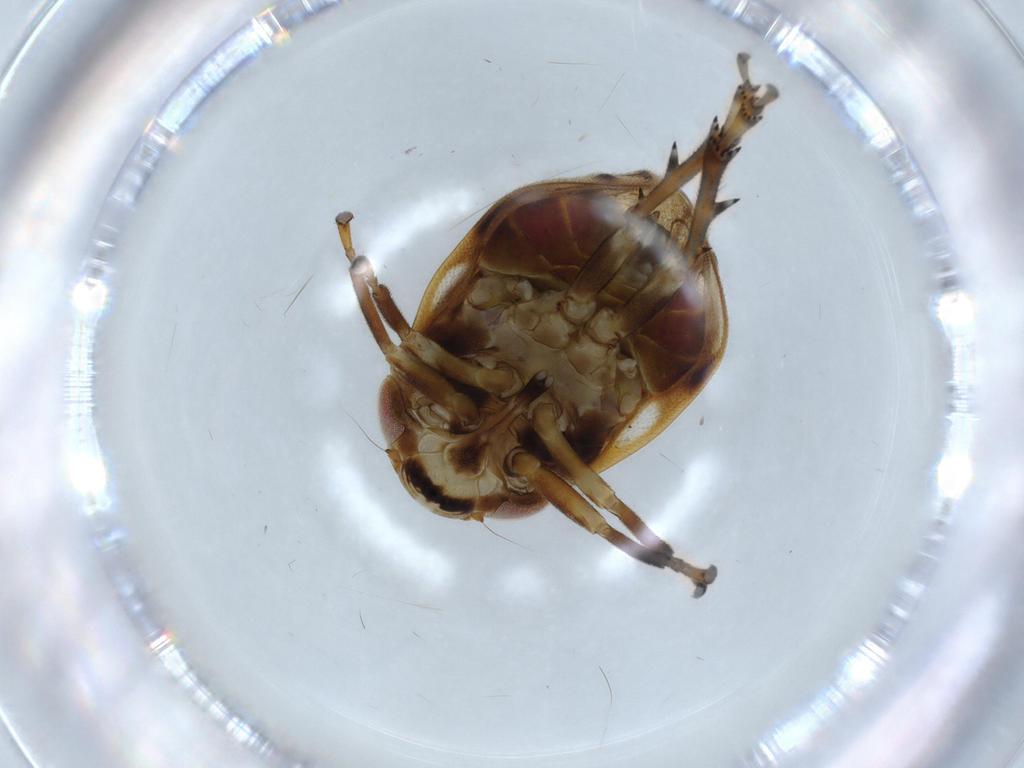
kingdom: Animalia
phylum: Arthropoda
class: Insecta
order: Hemiptera
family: Clastopteridae
